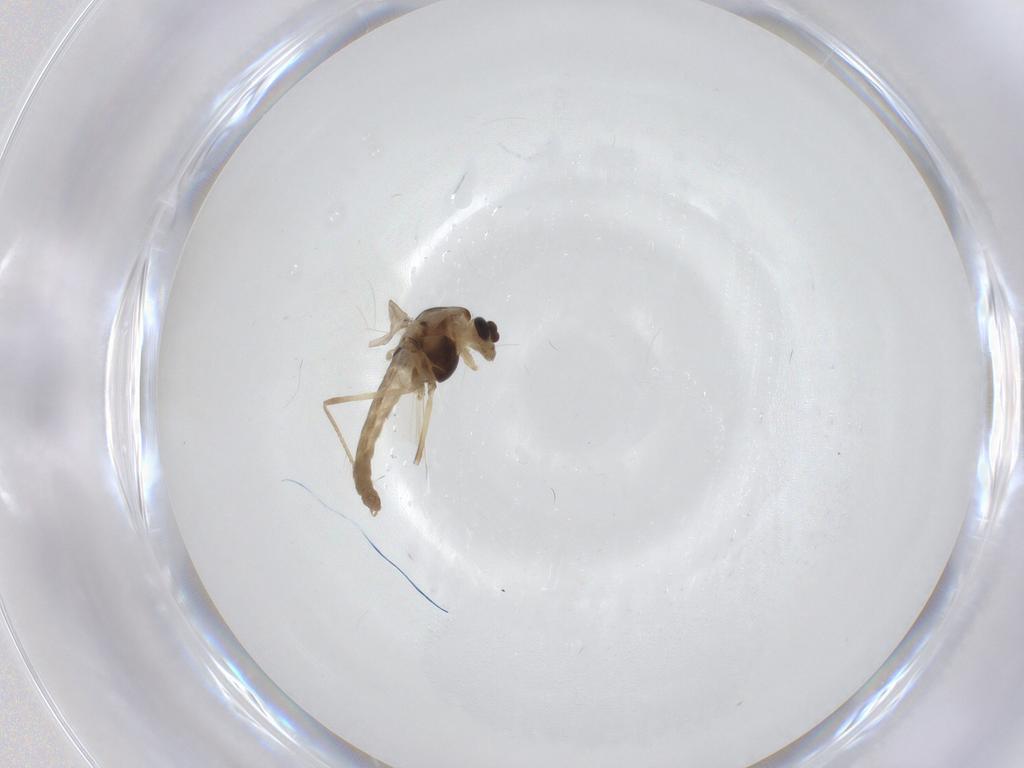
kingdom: Animalia
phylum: Arthropoda
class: Insecta
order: Diptera
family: Chironomidae
